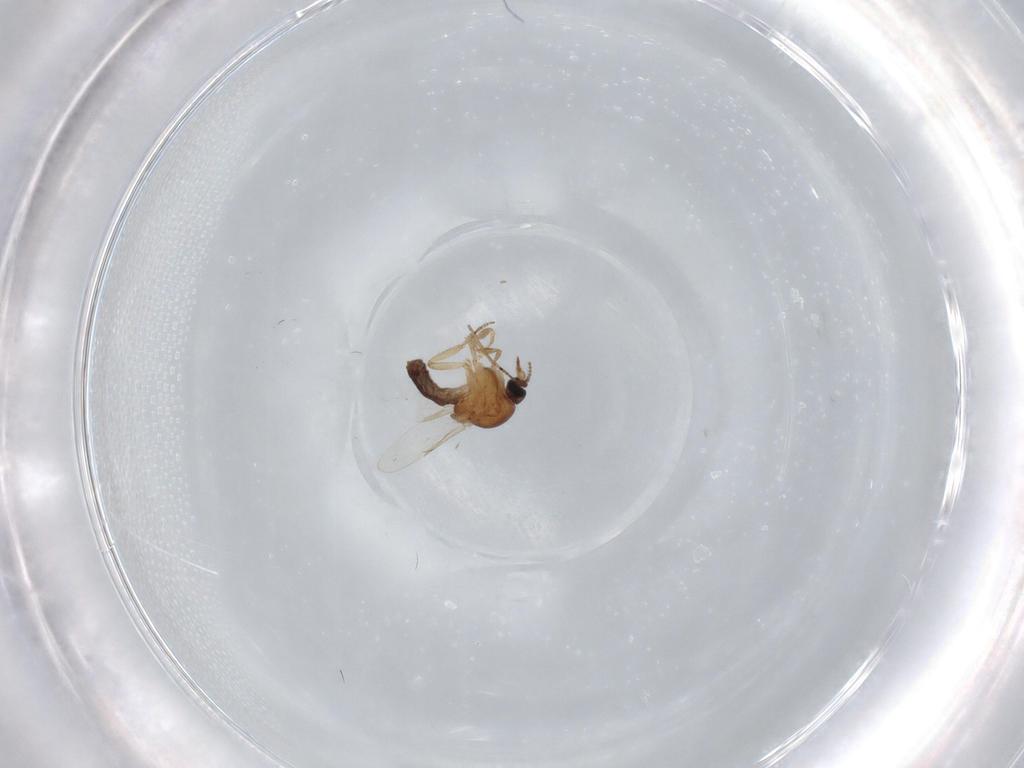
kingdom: Animalia
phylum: Arthropoda
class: Insecta
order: Diptera
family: Ceratopogonidae
